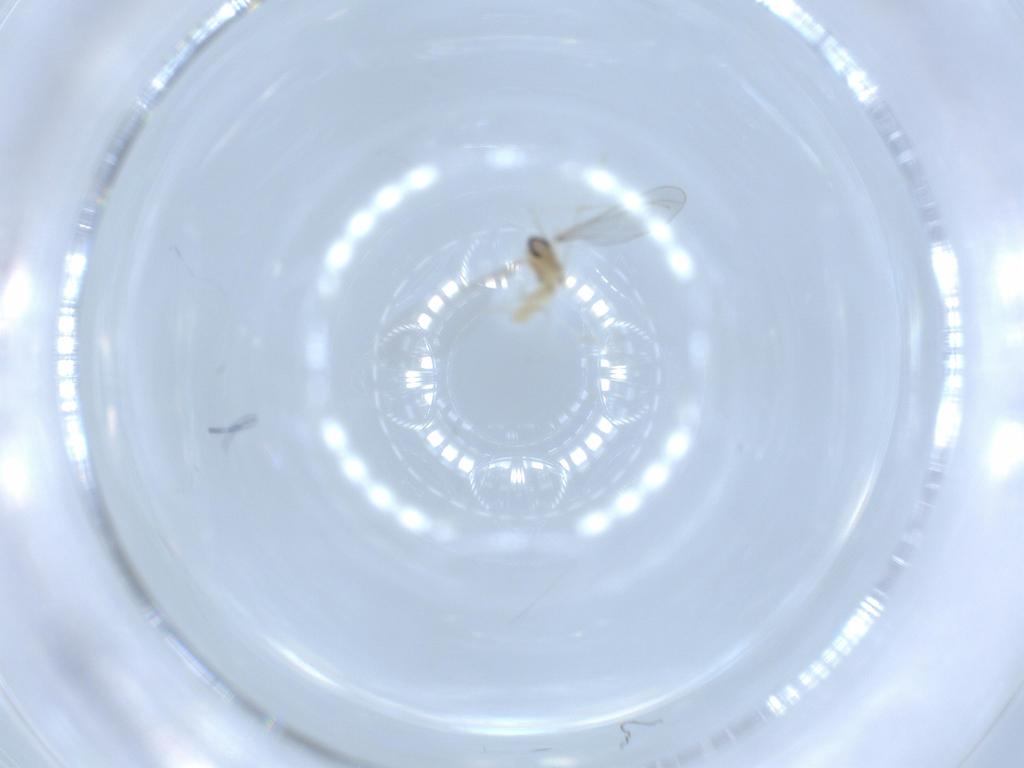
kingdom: Animalia
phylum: Arthropoda
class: Insecta
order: Diptera
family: Cecidomyiidae
